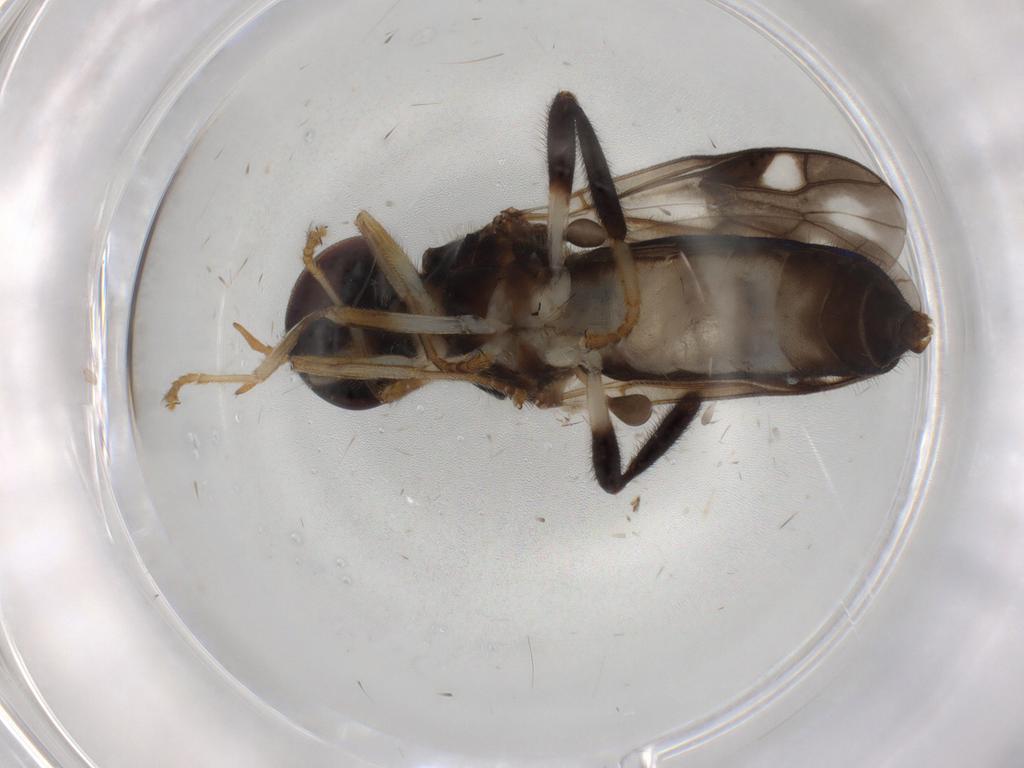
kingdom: Animalia
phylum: Arthropoda
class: Insecta
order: Diptera
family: Stratiomyidae
